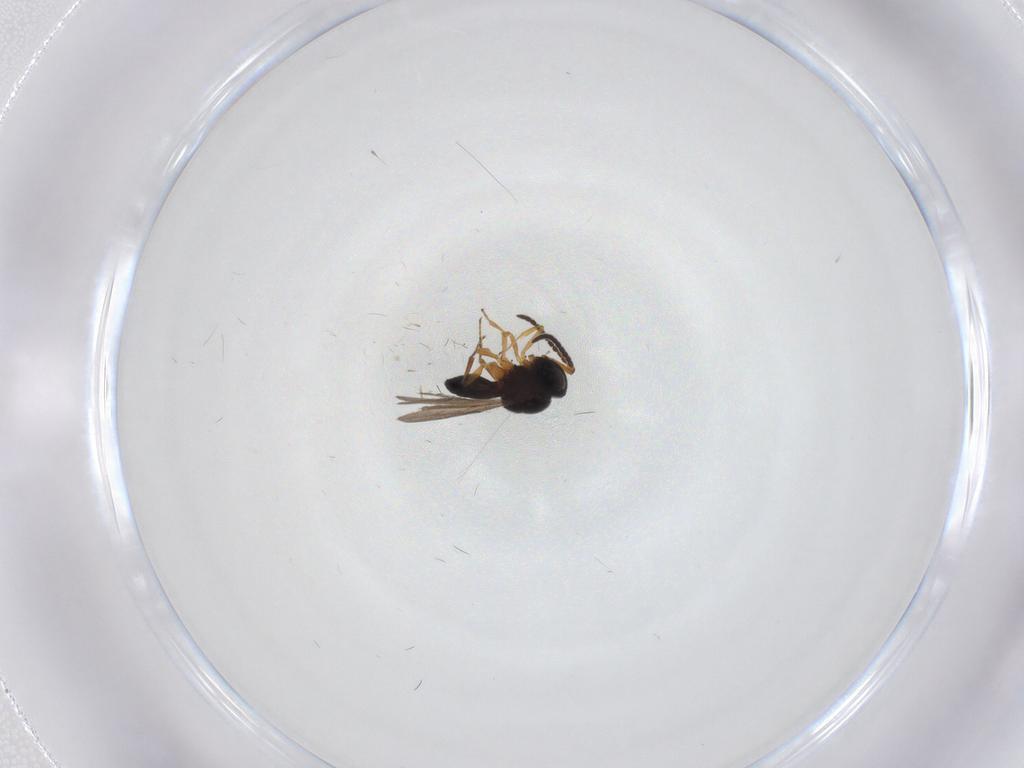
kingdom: Animalia
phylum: Arthropoda
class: Insecta
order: Hymenoptera
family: Scelionidae
